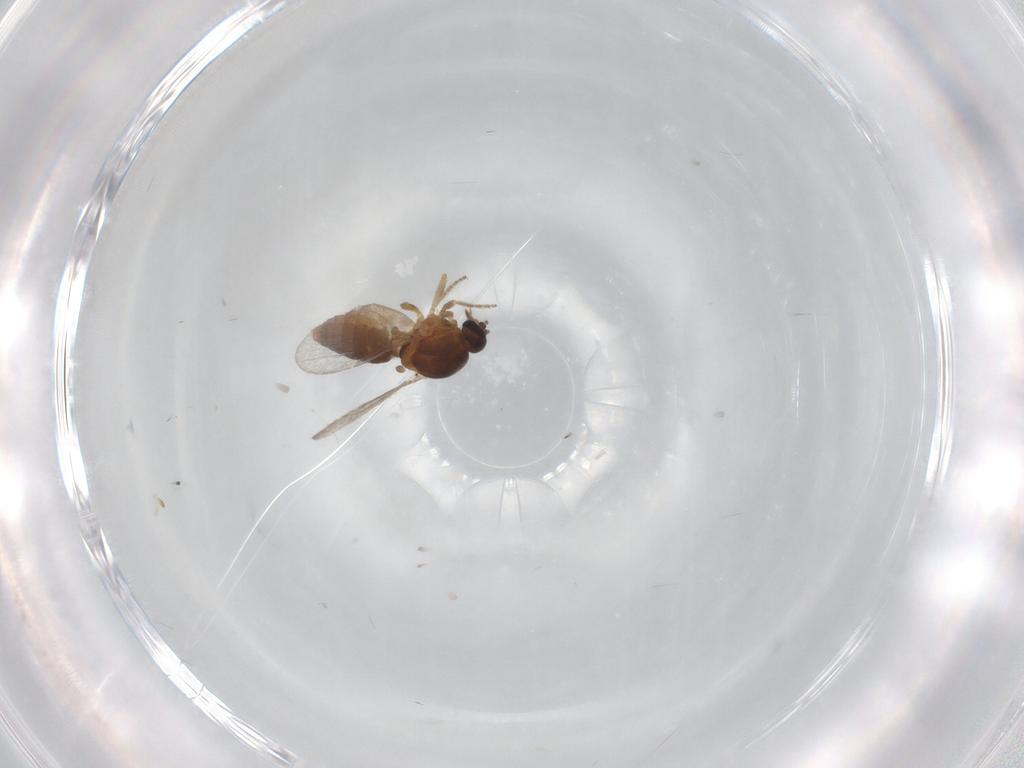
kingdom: Animalia
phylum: Arthropoda
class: Insecta
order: Diptera
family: Ceratopogonidae
